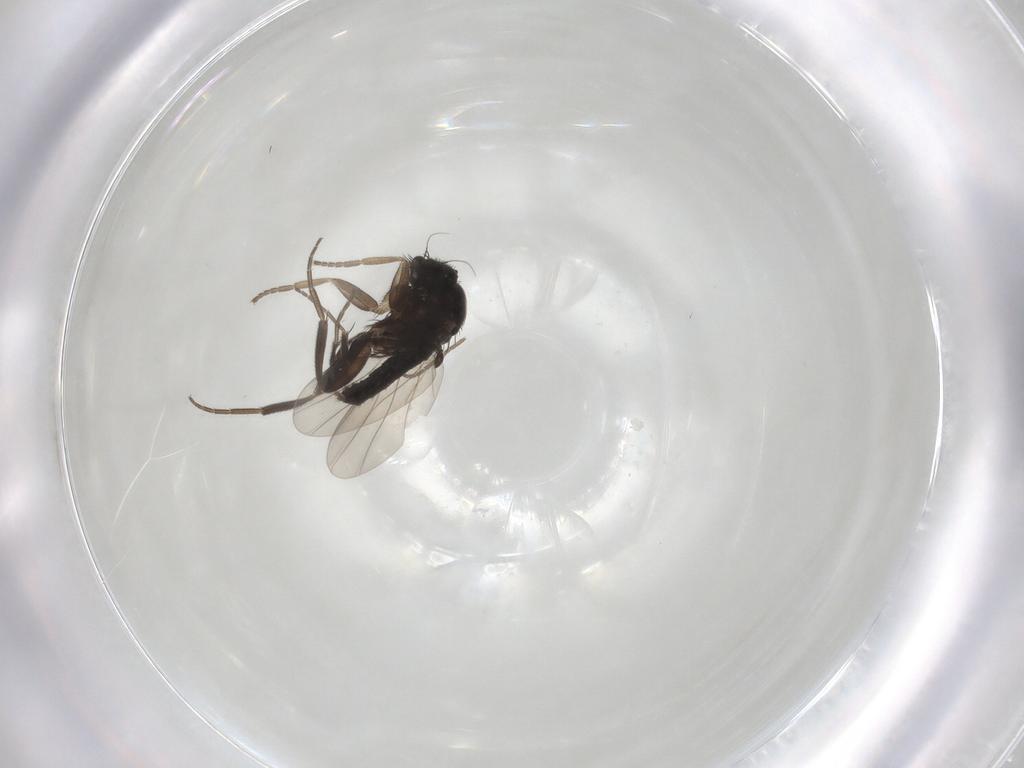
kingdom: Animalia
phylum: Arthropoda
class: Insecta
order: Diptera
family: Phoridae
